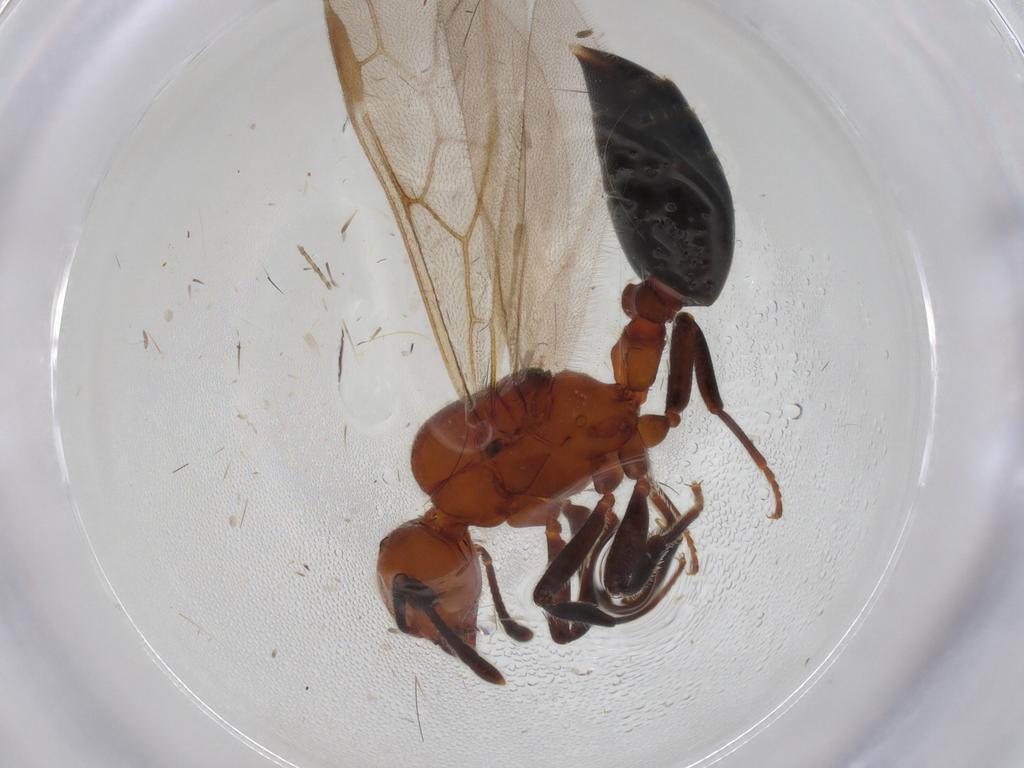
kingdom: Animalia
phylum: Arthropoda
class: Insecta
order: Hymenoptera
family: Formicidae
